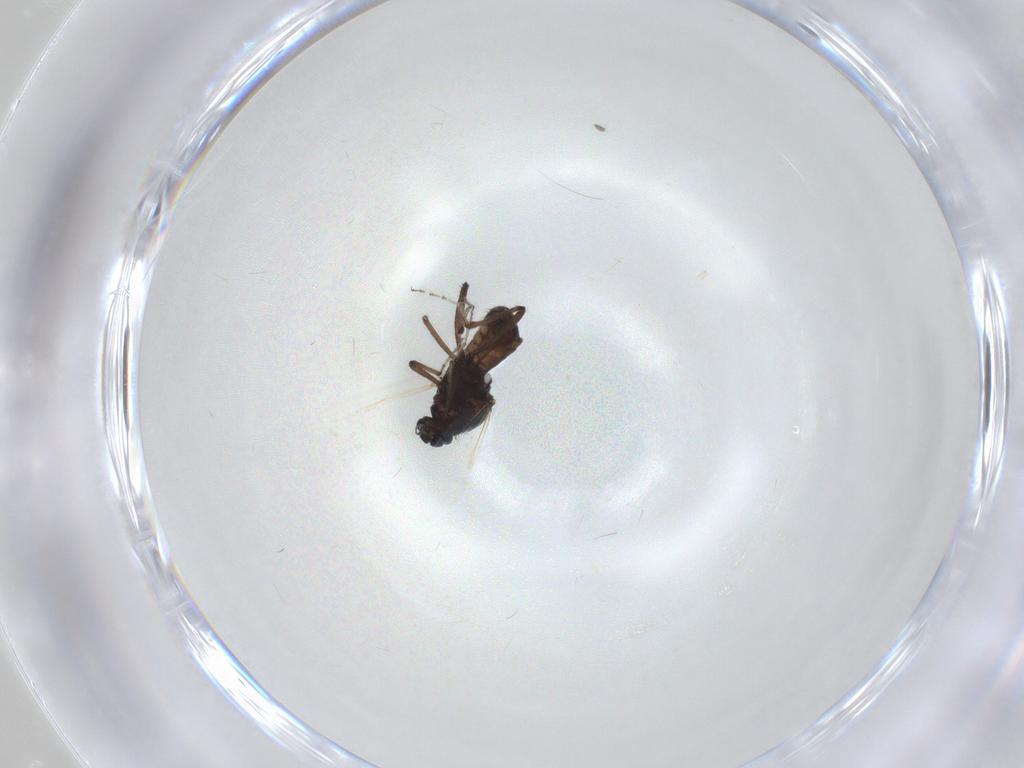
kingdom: Animalia
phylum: Arthropoda
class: Insecta
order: Diptera
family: Ceratopogonidae
